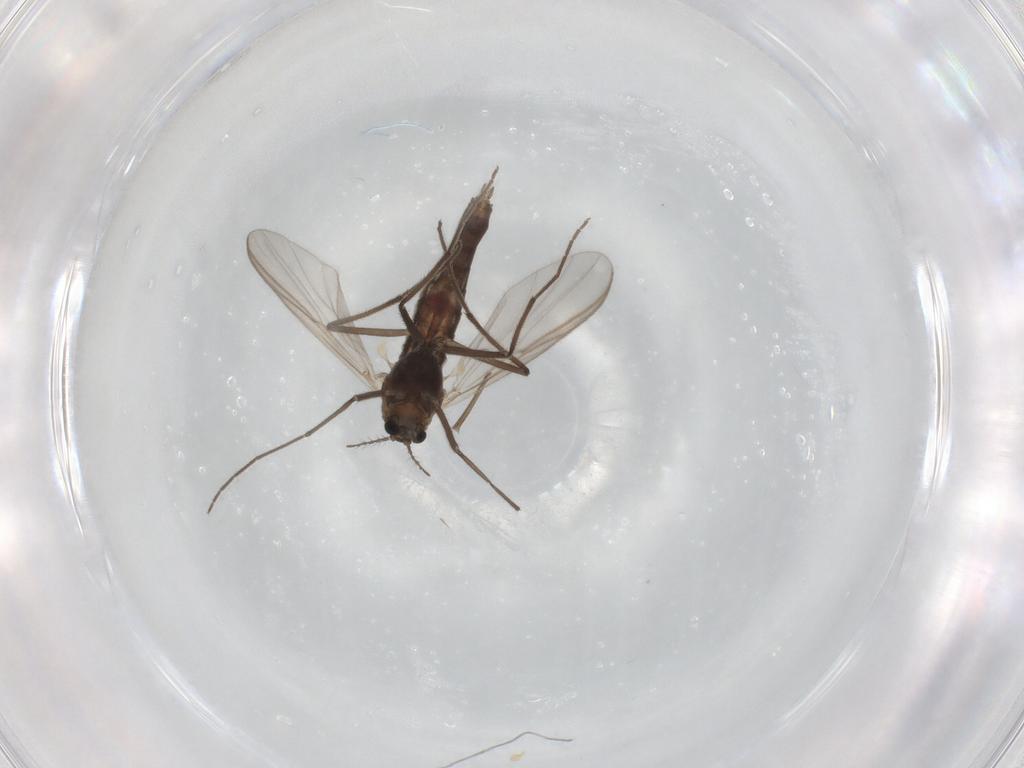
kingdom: Animalia
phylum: Arthropoda
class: Insecta
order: Diptera
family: Chironomidae
